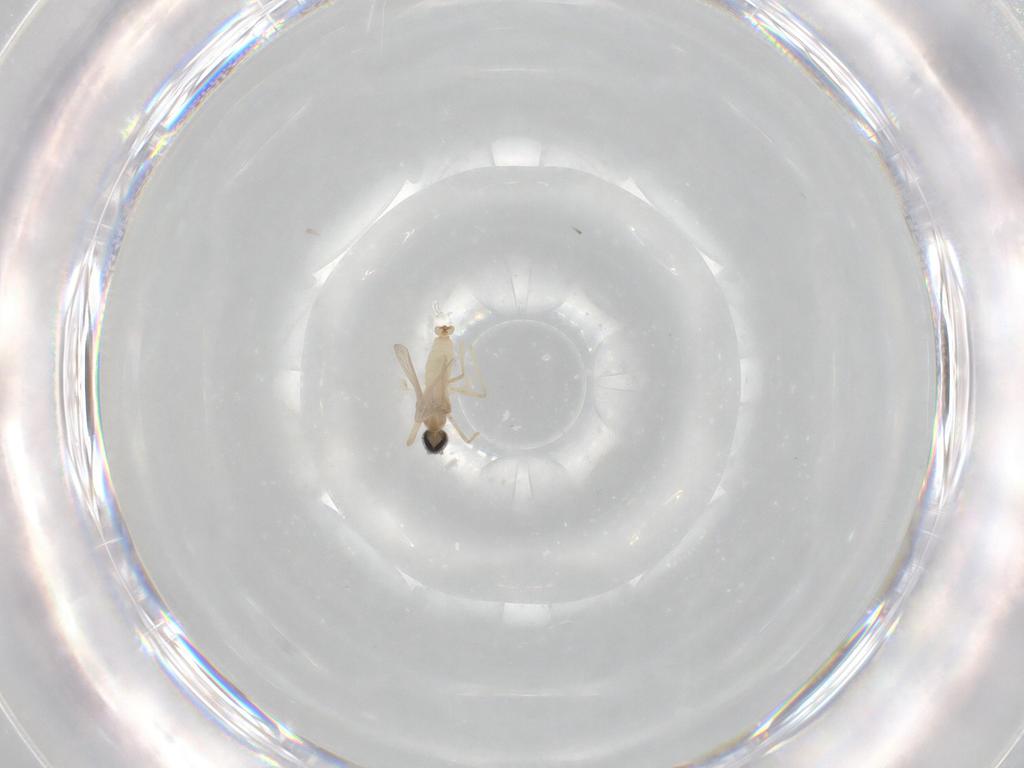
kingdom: Animalia
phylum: Arthropoda
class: Insecta
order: Diptera
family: Cecidomyiidae
